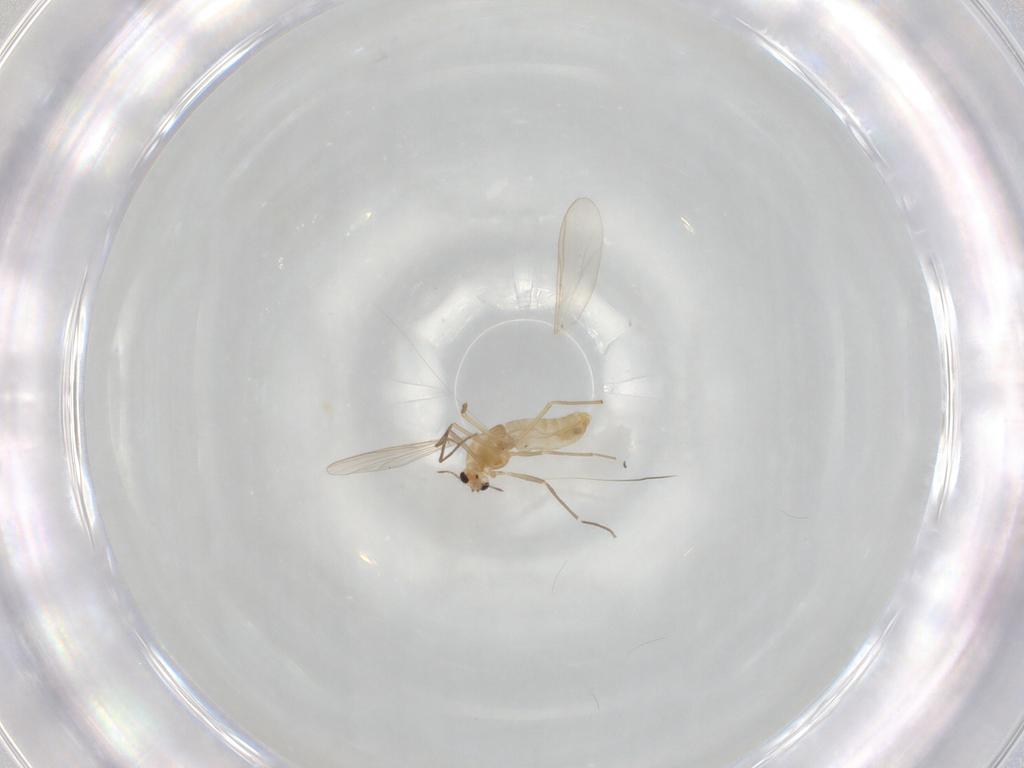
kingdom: Animalia
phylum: Arthropoda
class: Insecta
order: Diptera
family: Chironomidae
